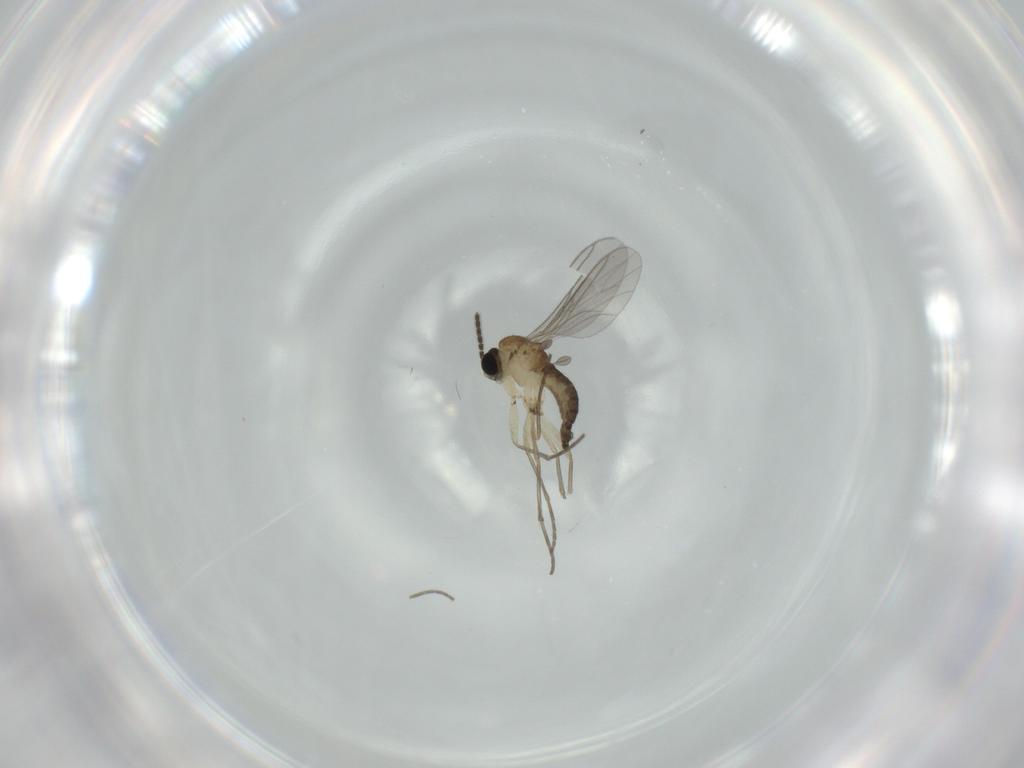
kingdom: Animalia
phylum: Arthropoda
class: Insecta
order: Diptera
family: Sciaridae
